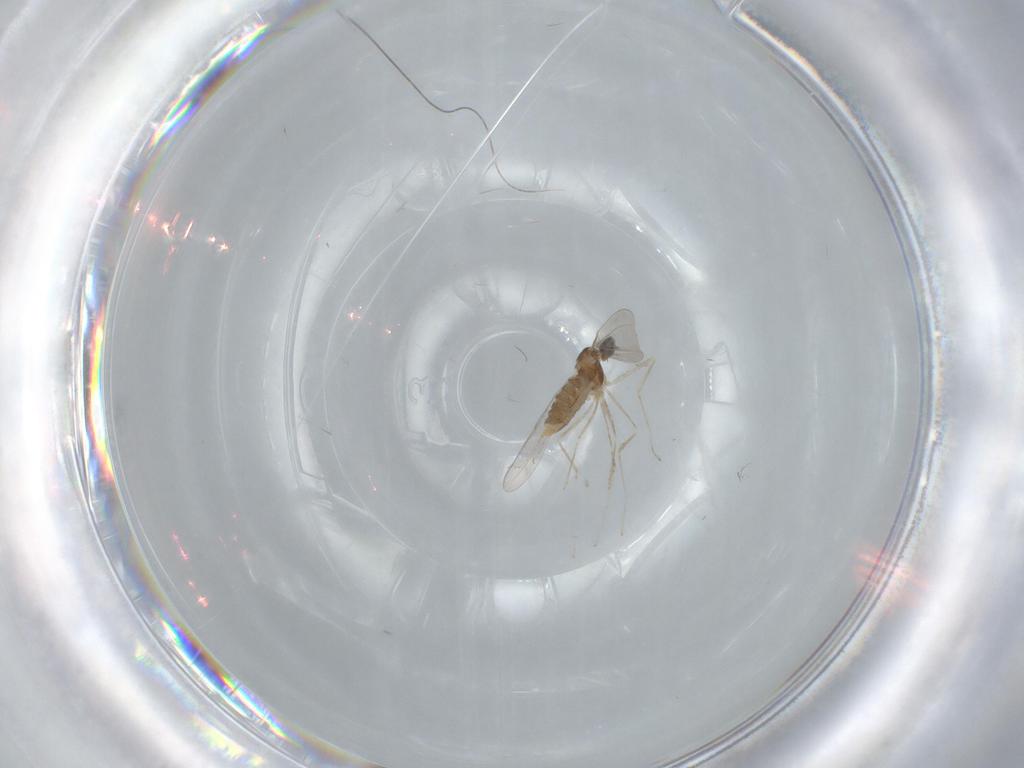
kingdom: Animalia
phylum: Arthropoda
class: Insecta
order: Diptera
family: Cecidomyiidae
